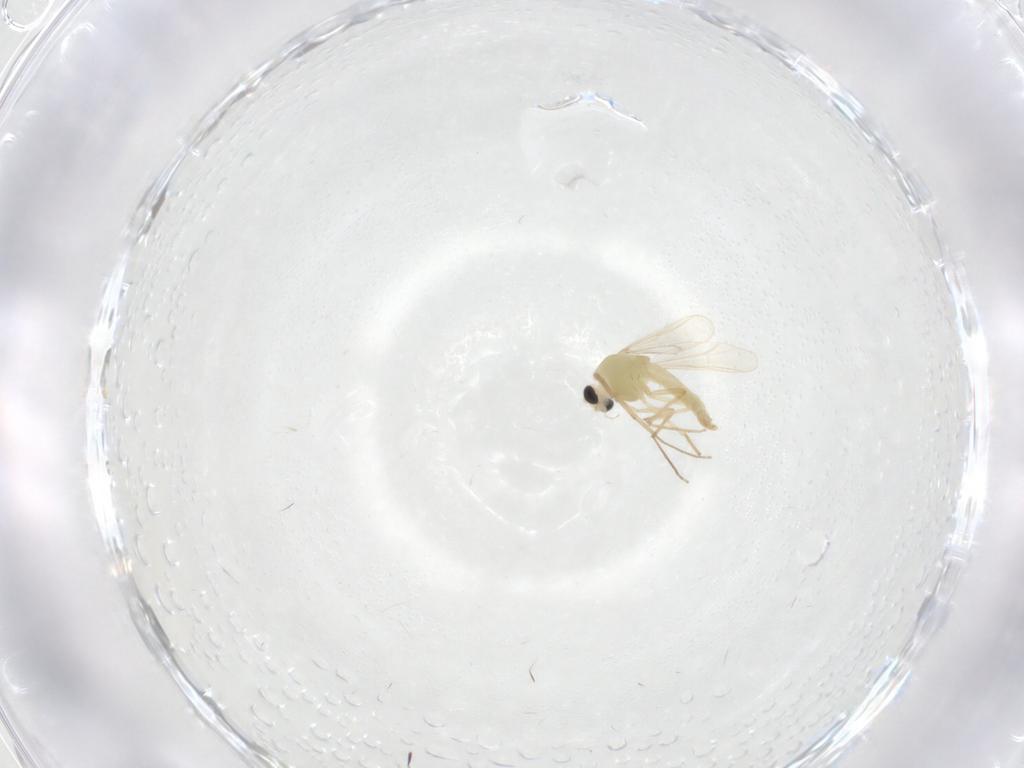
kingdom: Animalia
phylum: Arthropoda
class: Insecta
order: Diptera
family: Chironomidae
